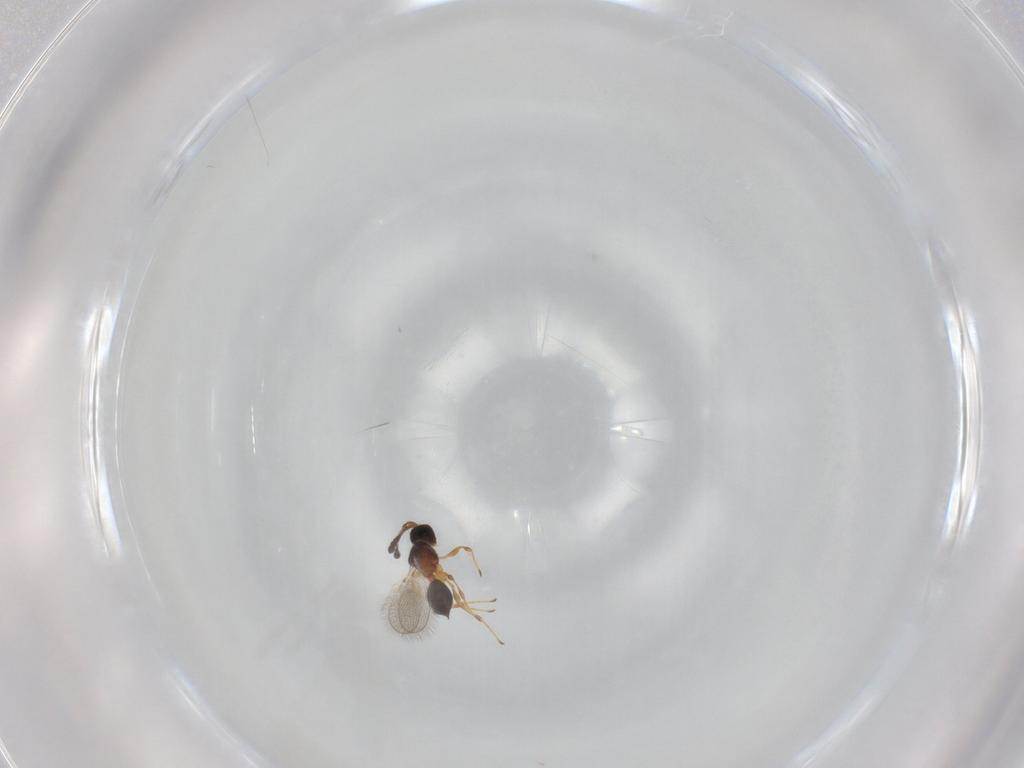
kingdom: Animalia
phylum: Arthropoda
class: Insecta
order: Hymenoptera
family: Diapriidae
